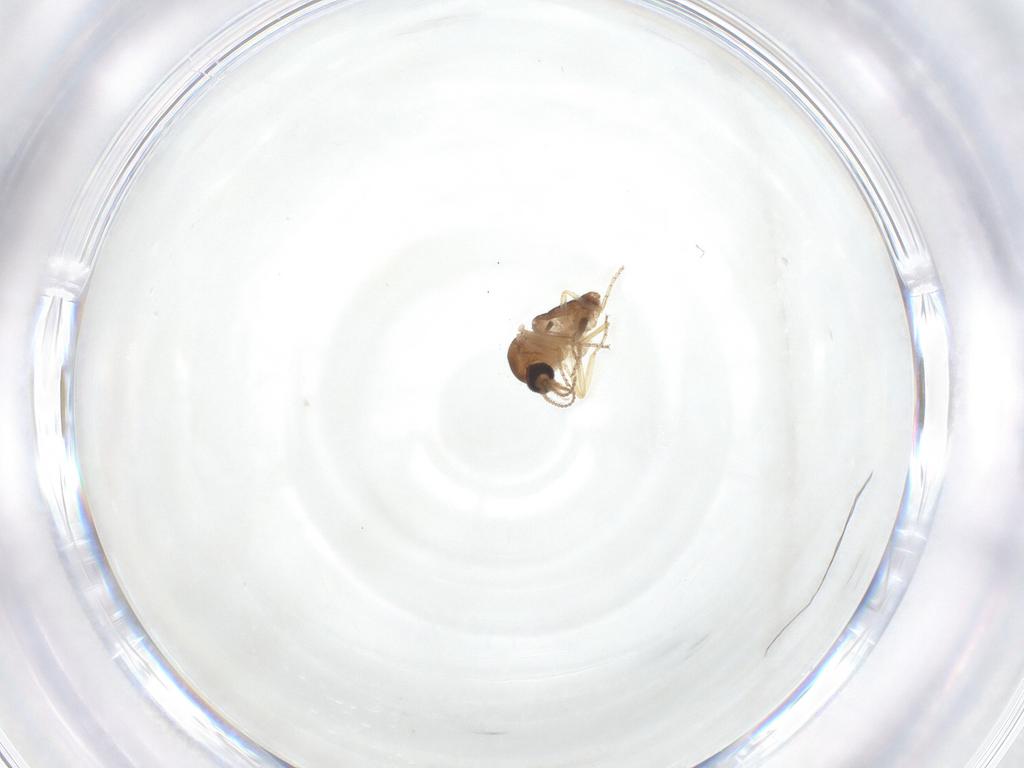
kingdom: Animalia
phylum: Arthropoda
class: Insecta
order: Diptera
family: Ceratopogonidae
